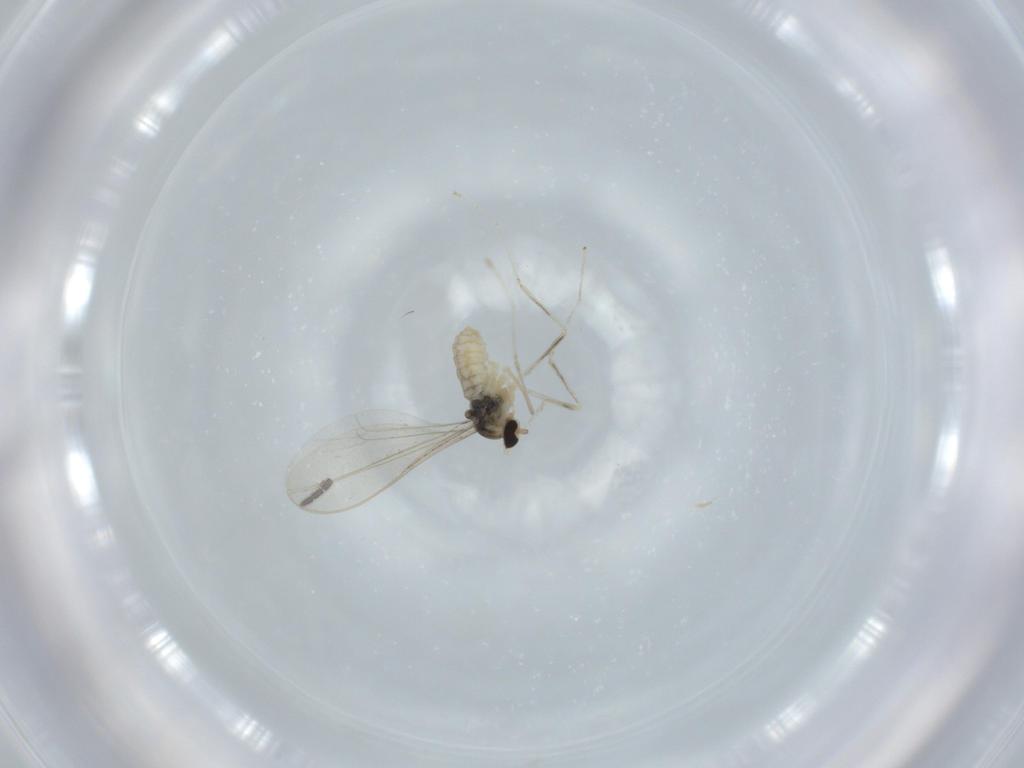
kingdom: Animalia
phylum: Arthropoda
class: Insecta
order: Diptera
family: Cecidomyiidae
